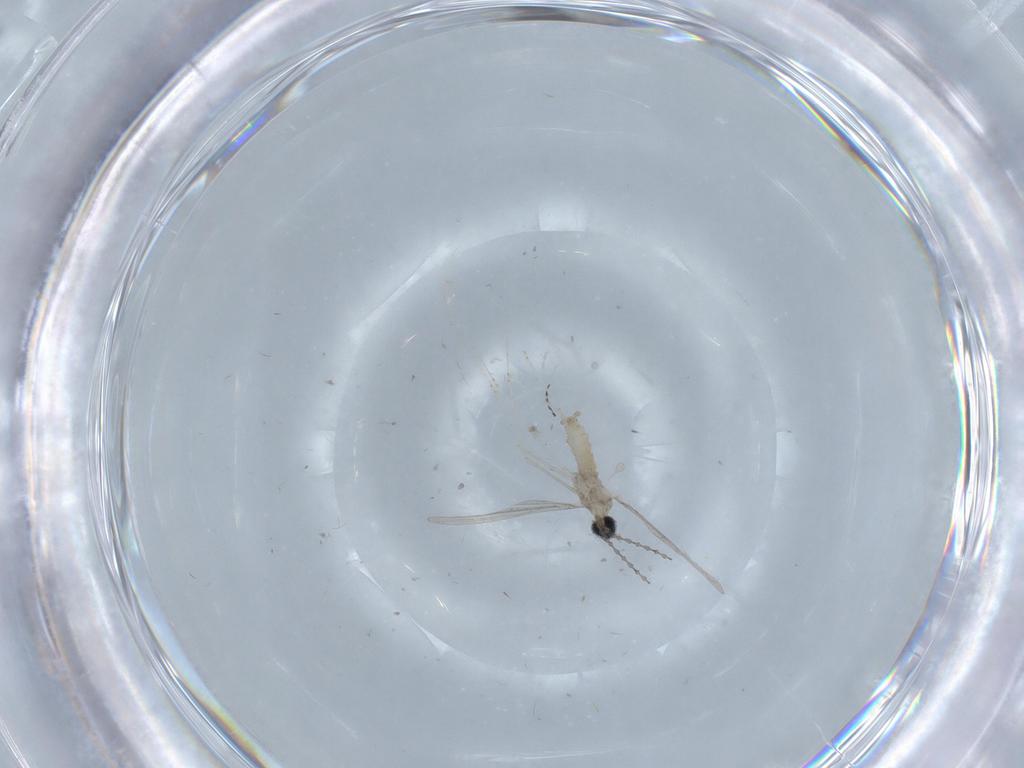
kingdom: Animalia
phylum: Arthropoda
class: Insecta
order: Diptera
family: Cecidomyiidae
